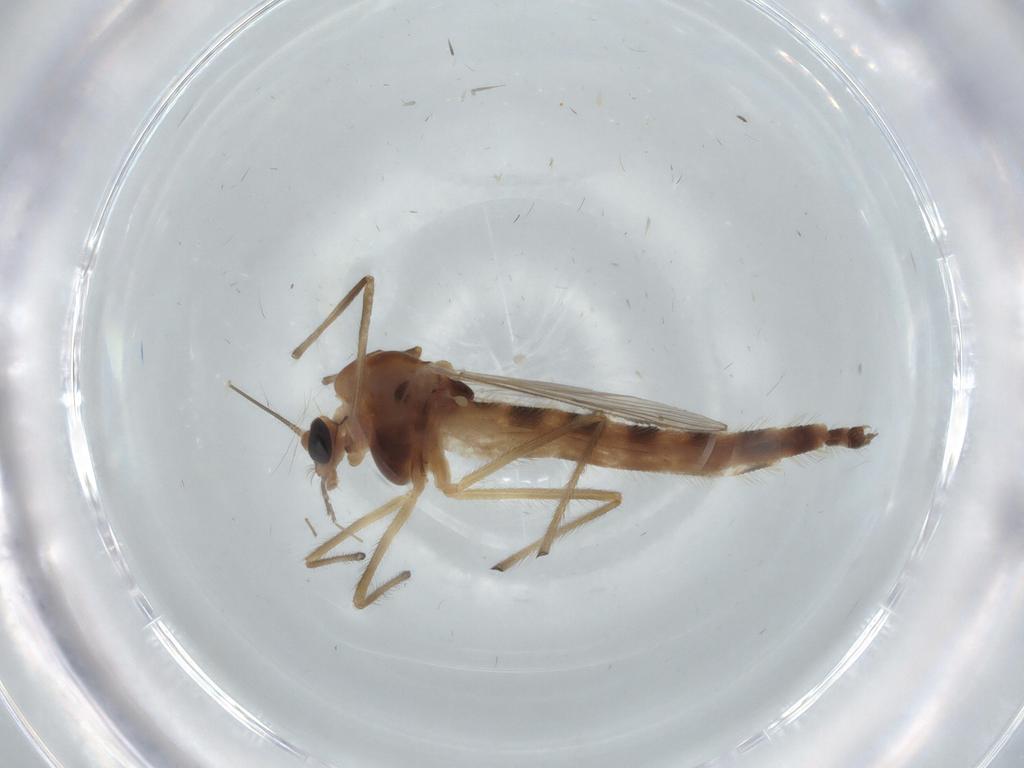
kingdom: Animalia
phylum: Arthropoda
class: Insecta
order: Diptera
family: Chironomidae
